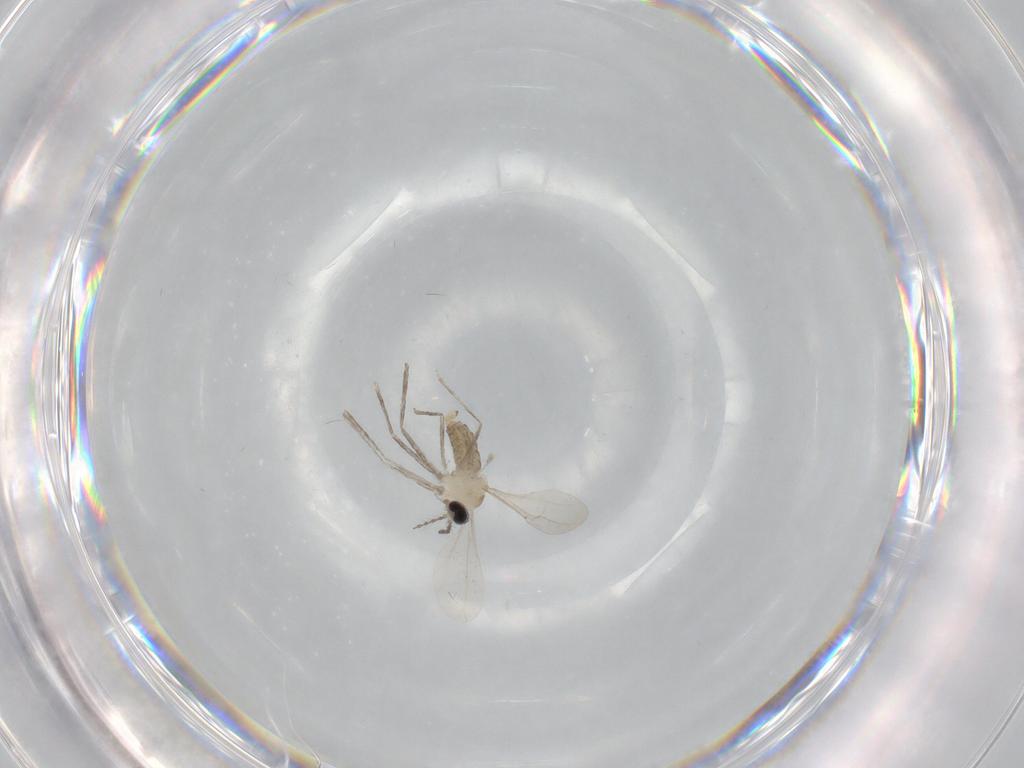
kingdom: Animalia
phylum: Arthropoda
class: Insecta
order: Diptera
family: Cecidomyiidae
